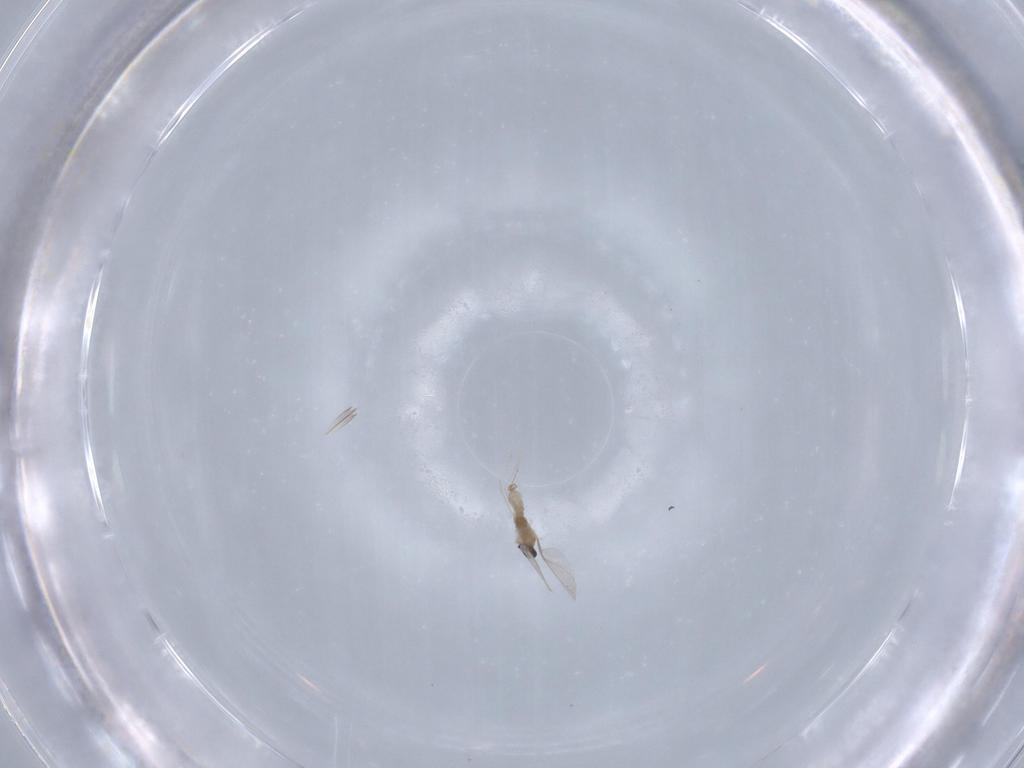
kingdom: Animalia
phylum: Arthropoda
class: Insecta
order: Diptera
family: Cecidomyiidae
